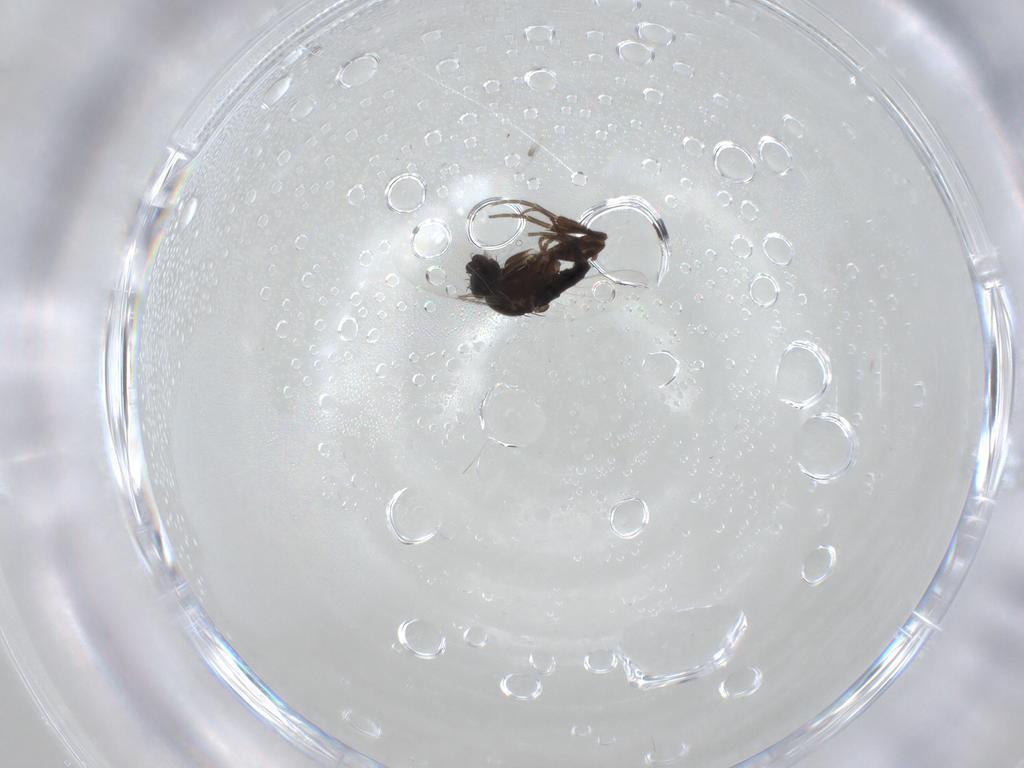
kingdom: Animalia
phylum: Arthropoda
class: Insecta
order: Diptera
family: Phoridae
